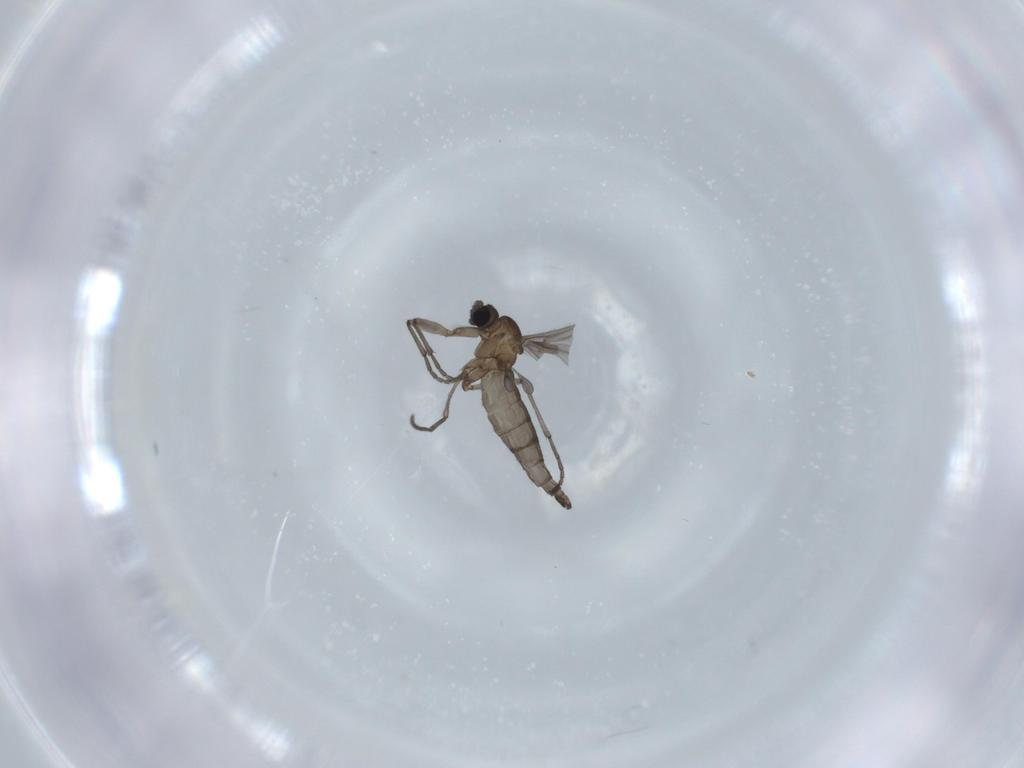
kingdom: Animalia
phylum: Arthropoda
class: Insecta
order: Diptera
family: Sciaridae
